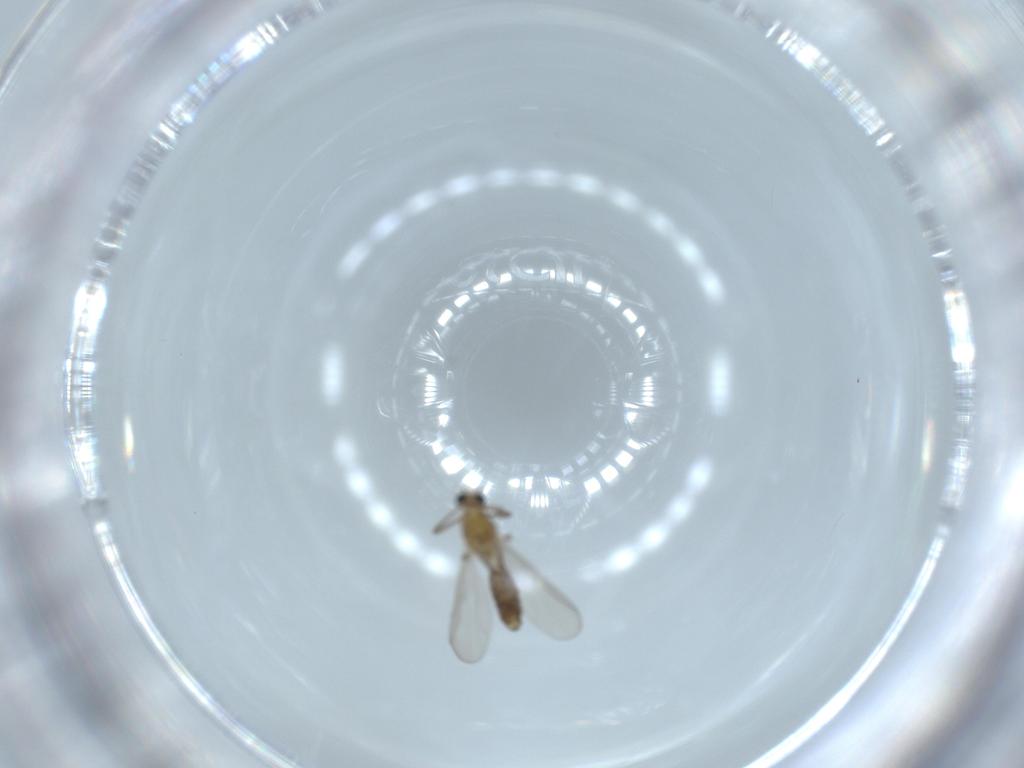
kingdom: Animalia
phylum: Arthropoda
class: Insecta
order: Diptera
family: Chironomidae
